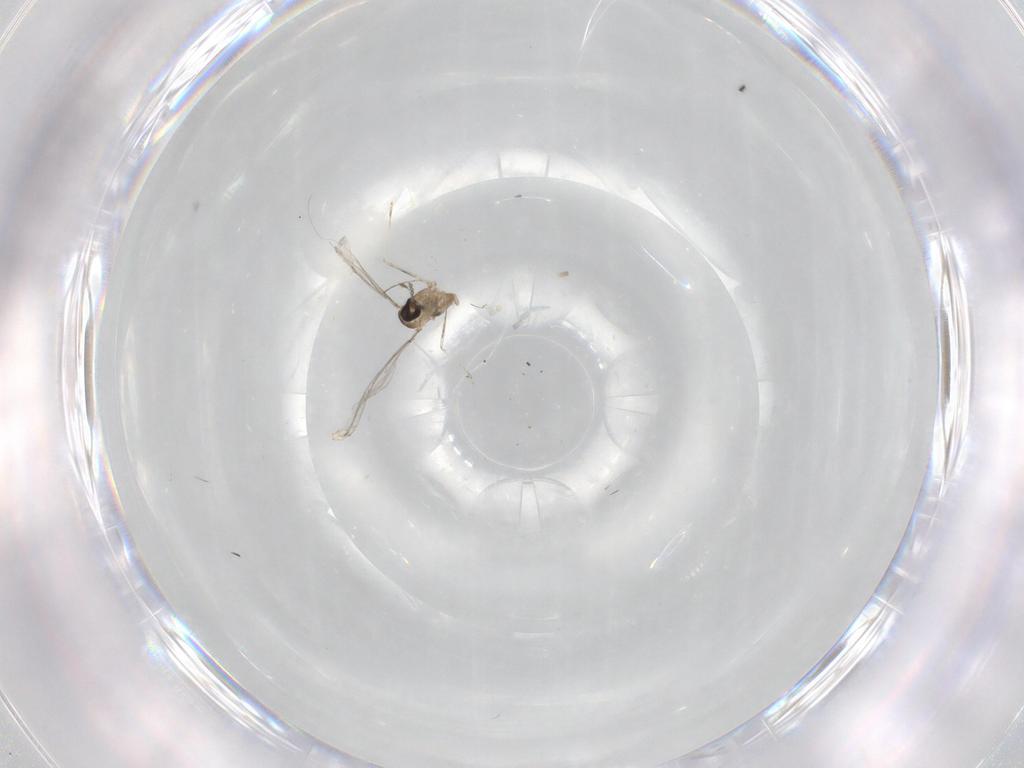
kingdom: Animalia
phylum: Arthropoda
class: Insecta
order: Diptera
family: Cecidomyiidae
